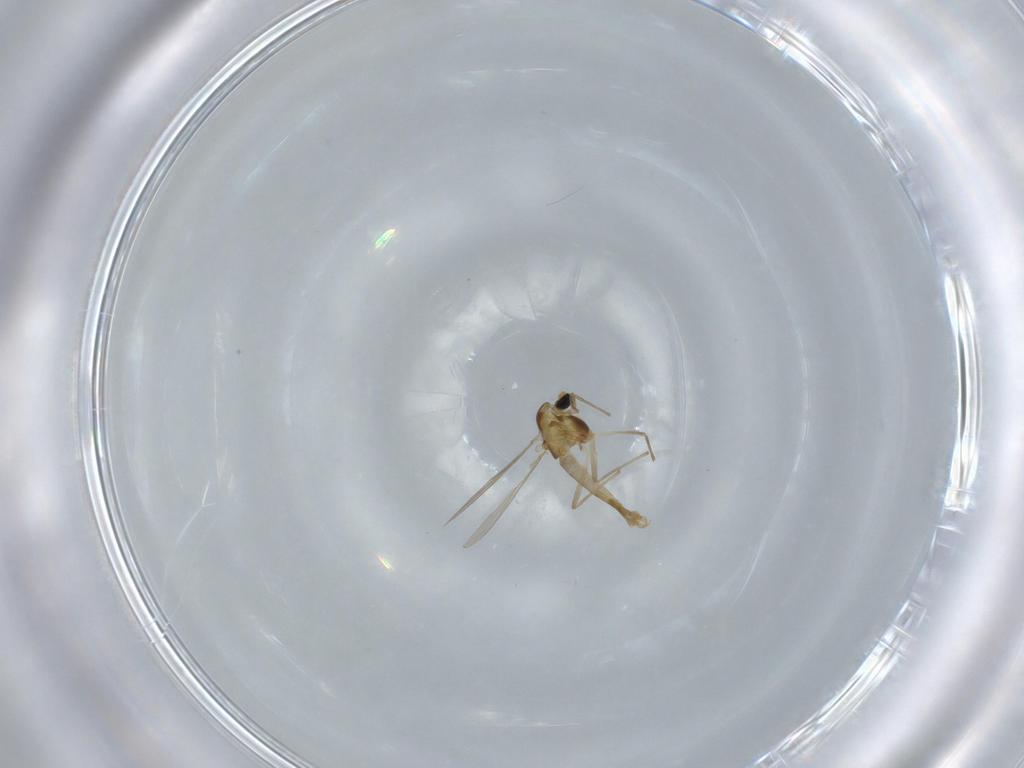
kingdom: Animalia
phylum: Arthropoda
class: Insecta
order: Diptera
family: Chironomidae
